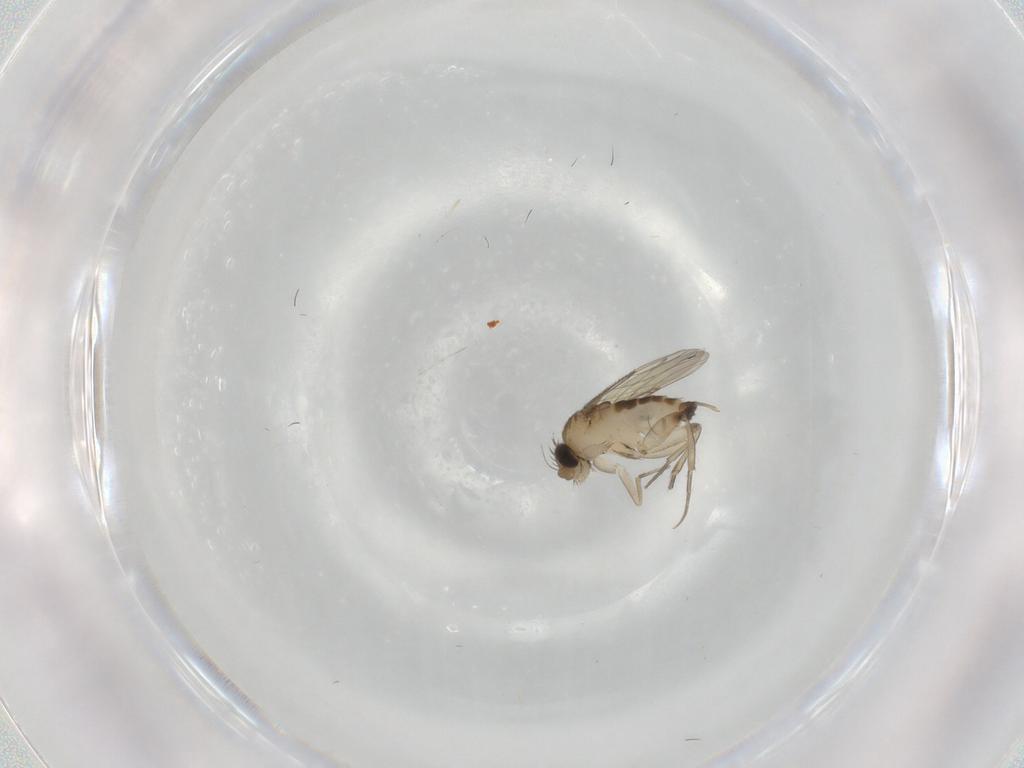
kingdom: Animalia
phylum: Arthropoda
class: Insecta
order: Diptera
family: Phoridae
